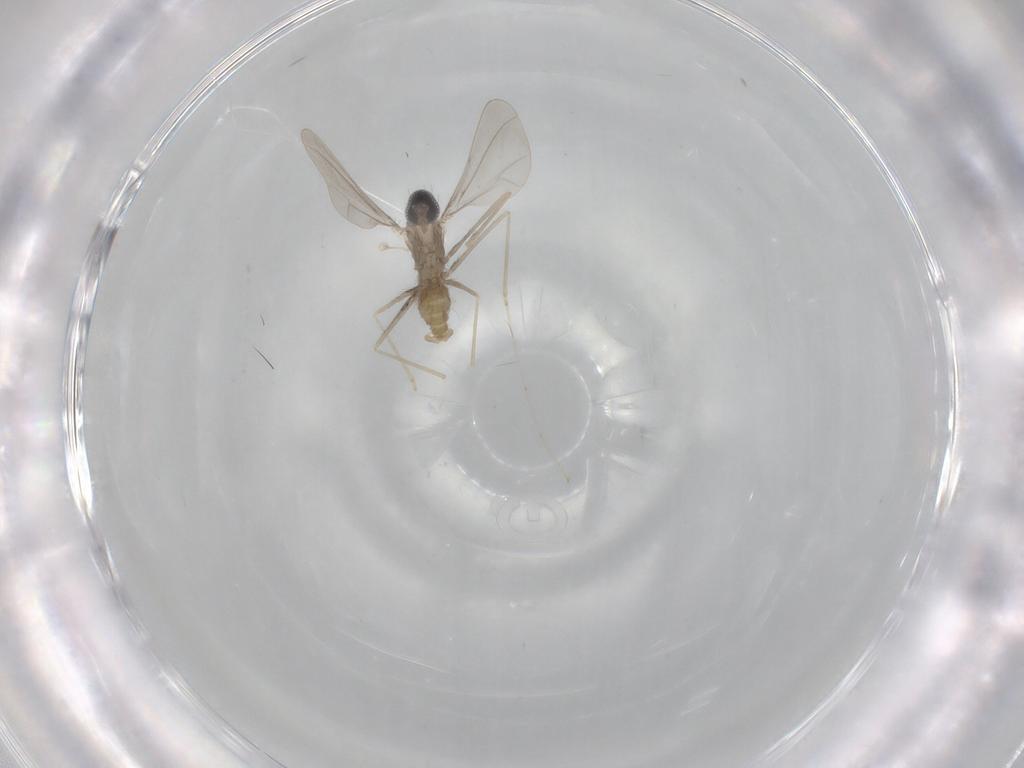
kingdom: Animalia
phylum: Arthropoda
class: Insecta
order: Diptera
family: Cecidomyiidae
